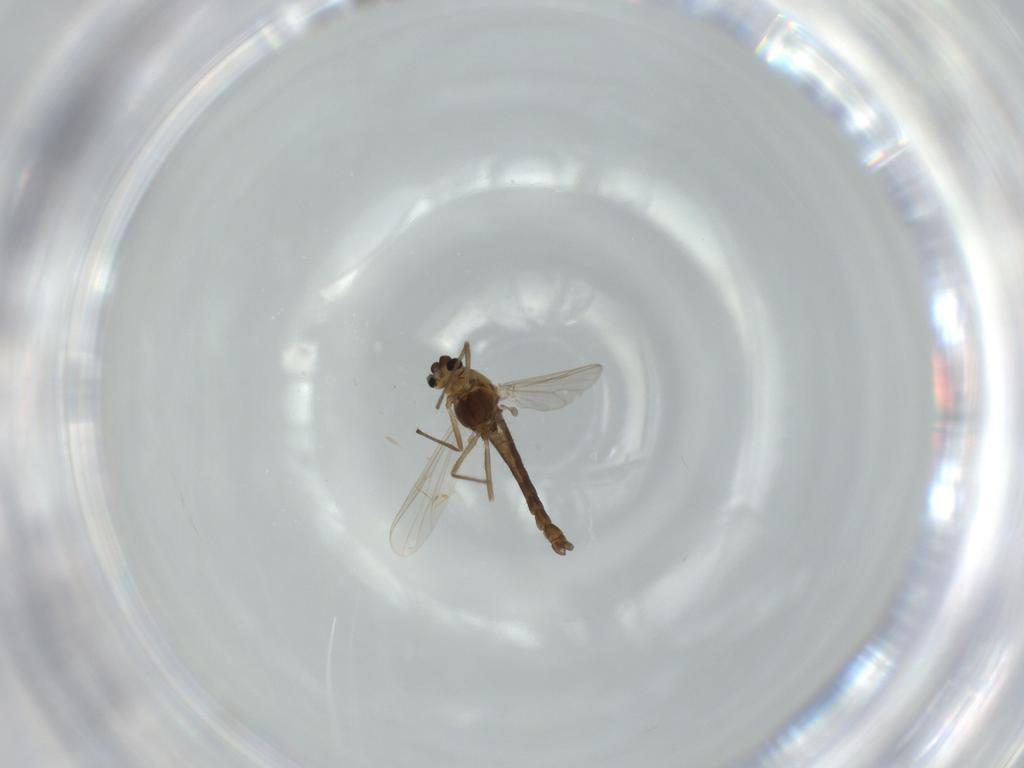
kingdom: Animalia
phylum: Arthropoda
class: Insecta
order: Diptera
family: Chironomidae
